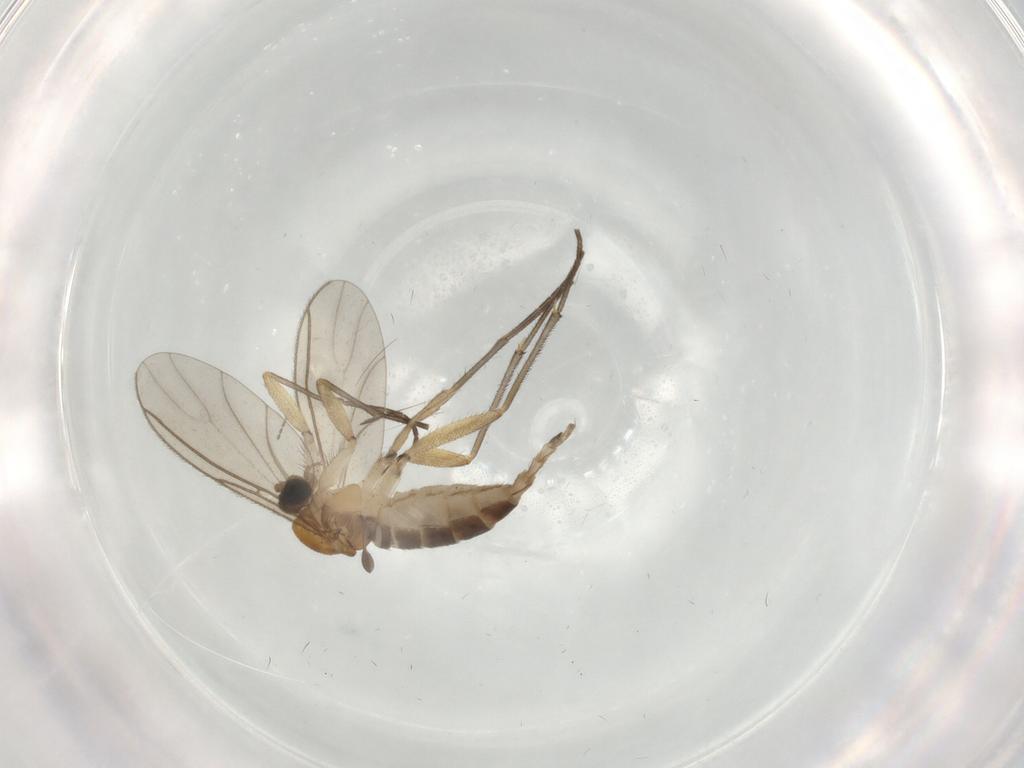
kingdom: Animalia
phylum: Arthropoda
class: Insecta
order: Diptera
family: Sciaridae
